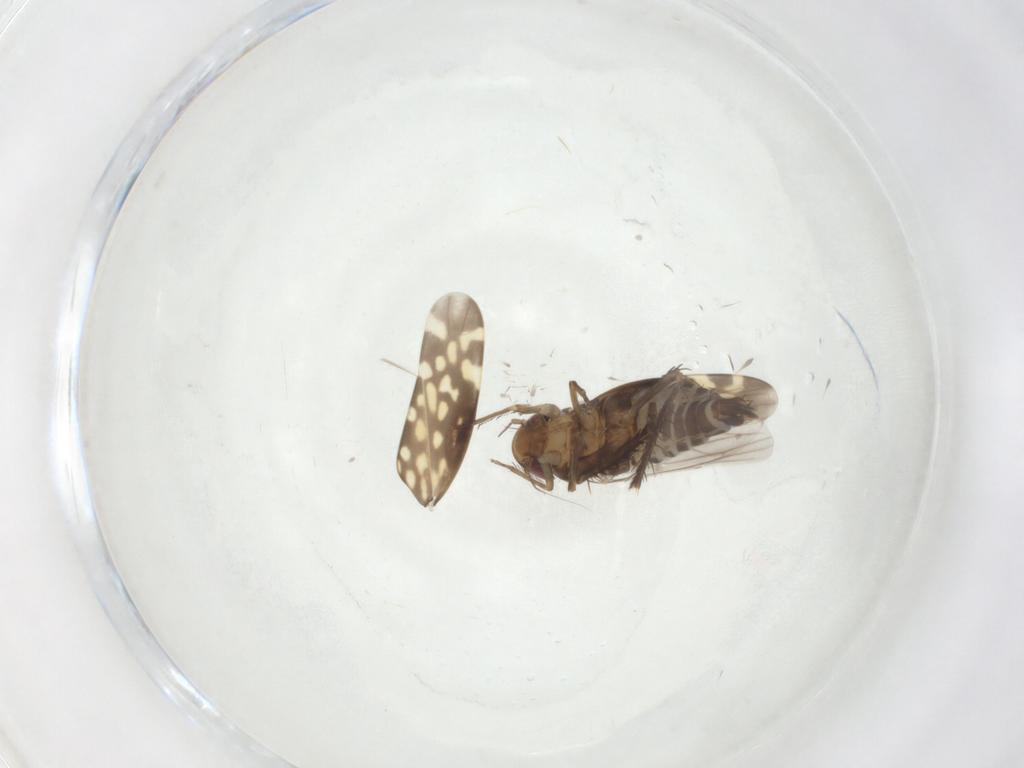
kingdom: Animalia
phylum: Arthropoda
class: Insecta
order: Hemiptera
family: Cicadellidae
